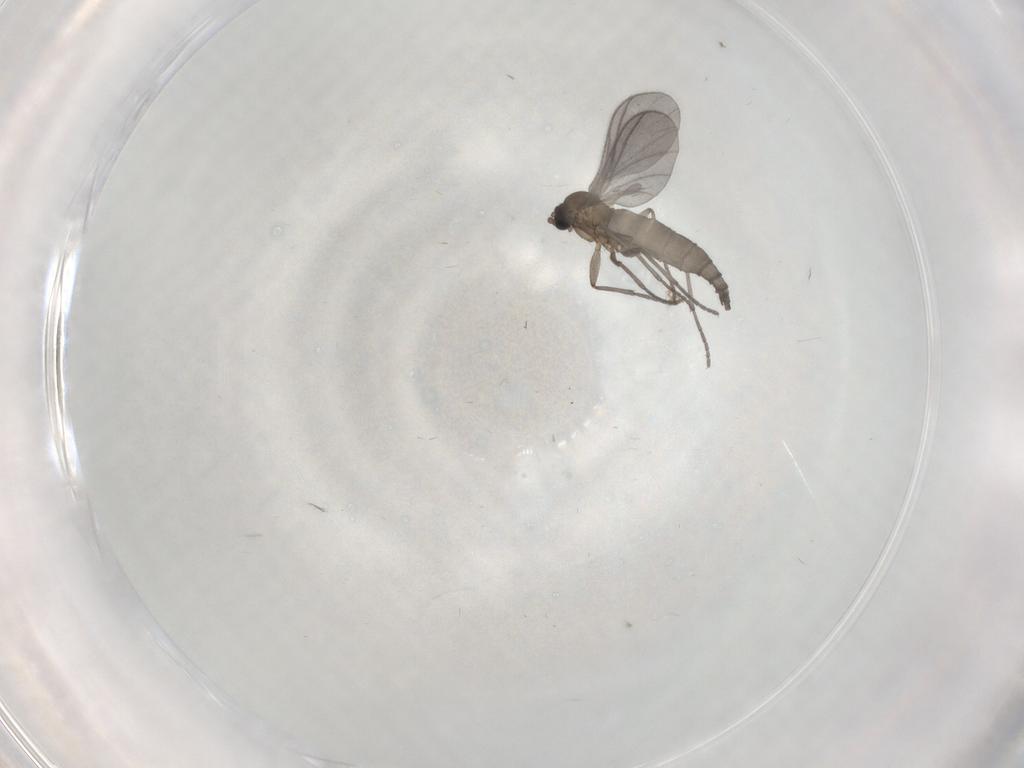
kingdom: Animalia
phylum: Arthropoda
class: Insecta
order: Diptera
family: Sciaridae
